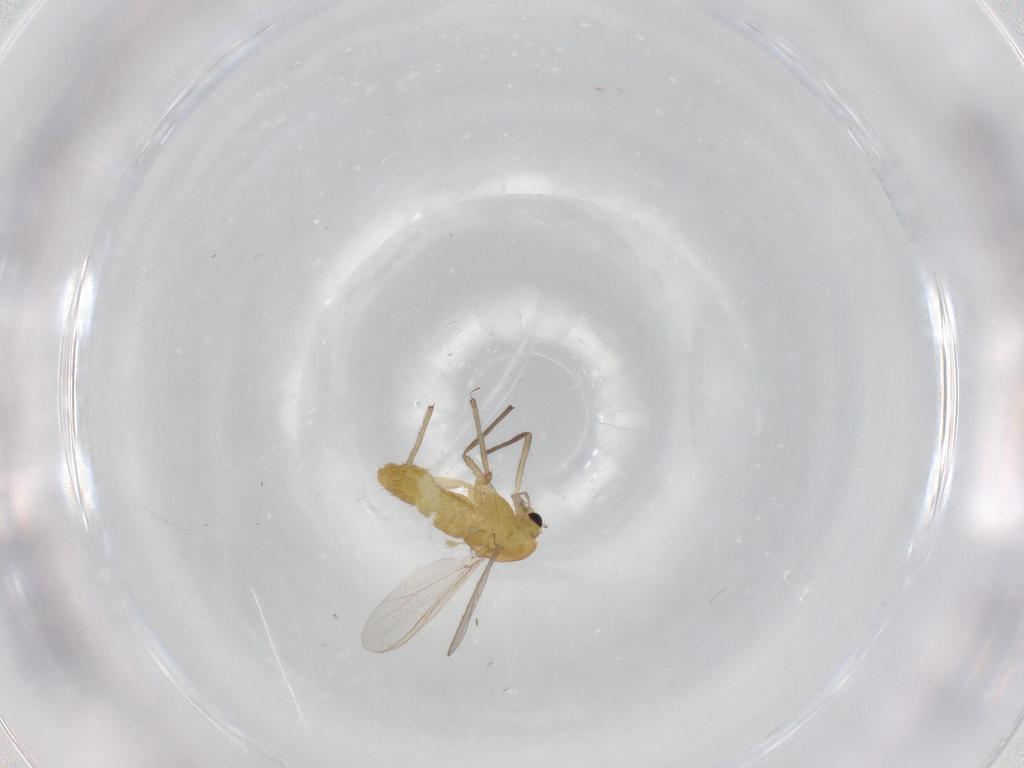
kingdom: Animalia
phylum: Arthropoda
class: Insecta
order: Diptera
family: Chironomidae
